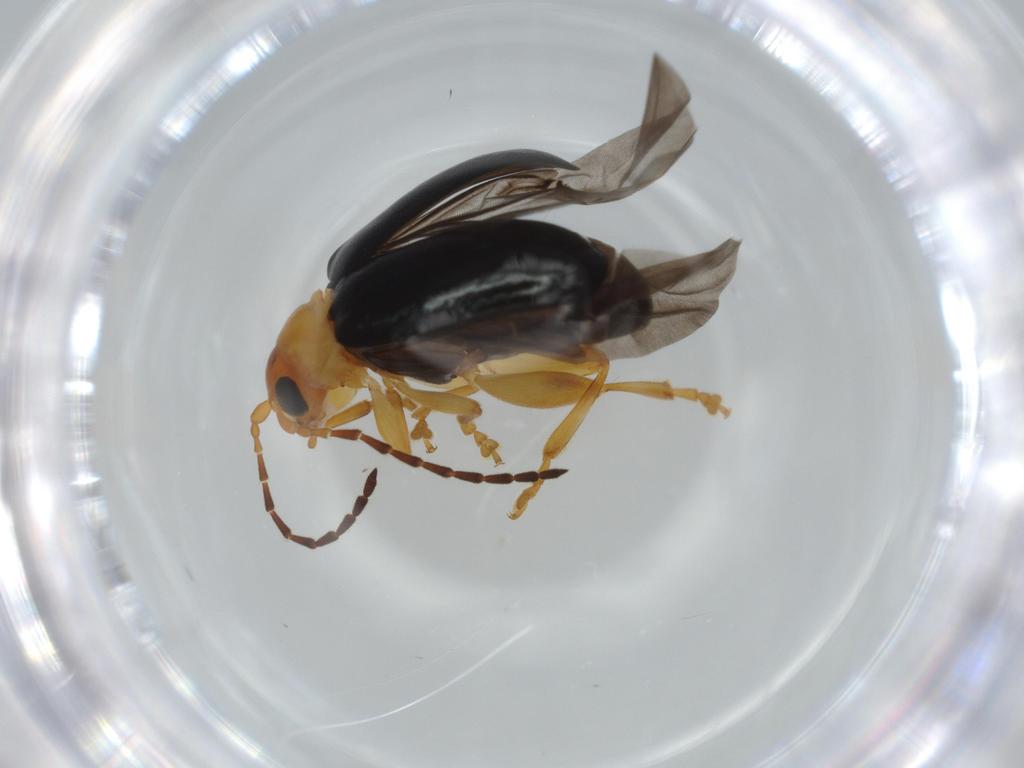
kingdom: Animalia
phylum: Arthropoda
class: Insecta
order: Coleoptera
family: Chrysomelidae
